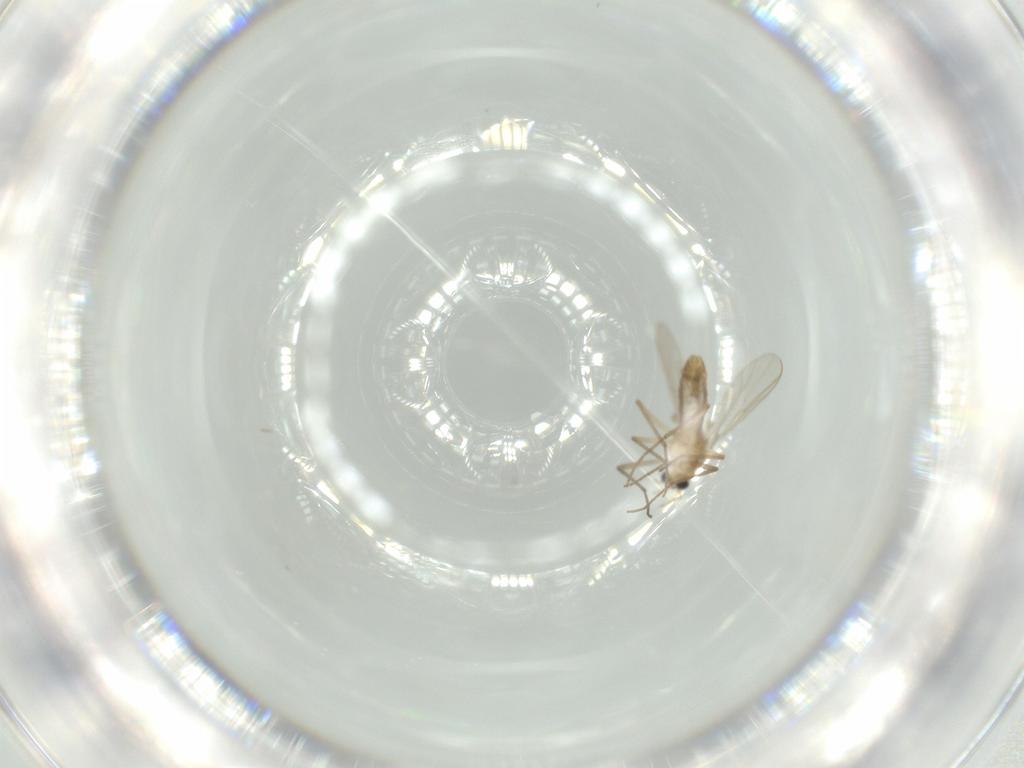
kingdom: Animalia
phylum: Arthropoda
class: Insecta
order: Diptera
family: Chironomidae
